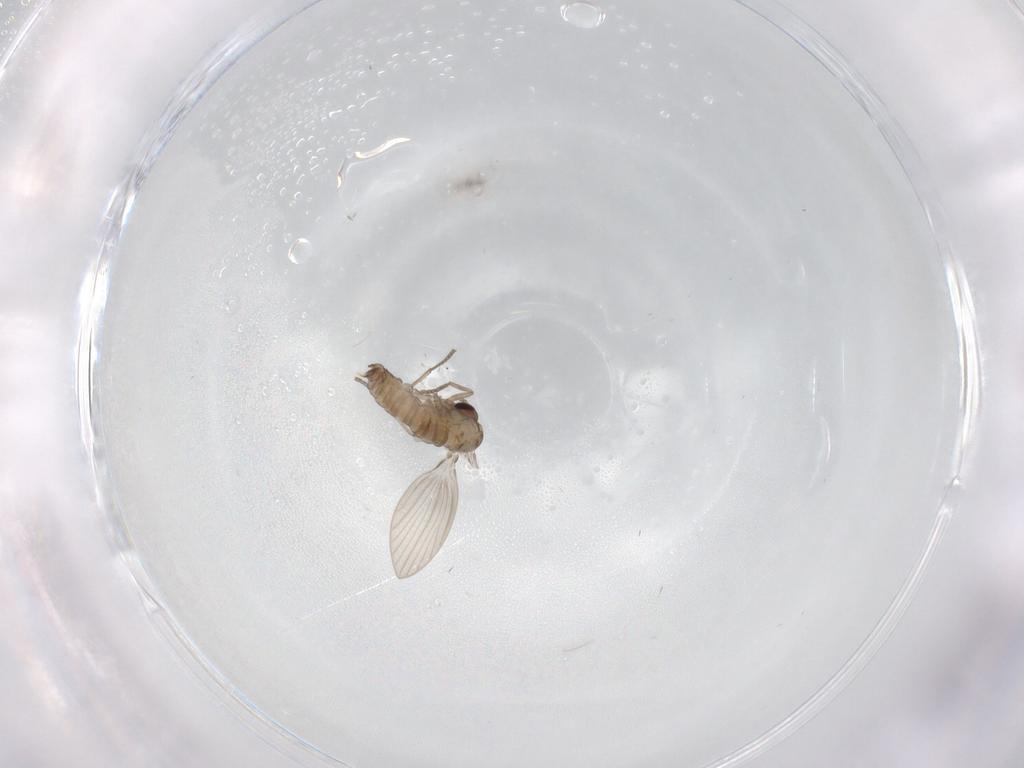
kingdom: Animalia
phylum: Arthropoda
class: Insecta
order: Diptera
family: Psychodidae
